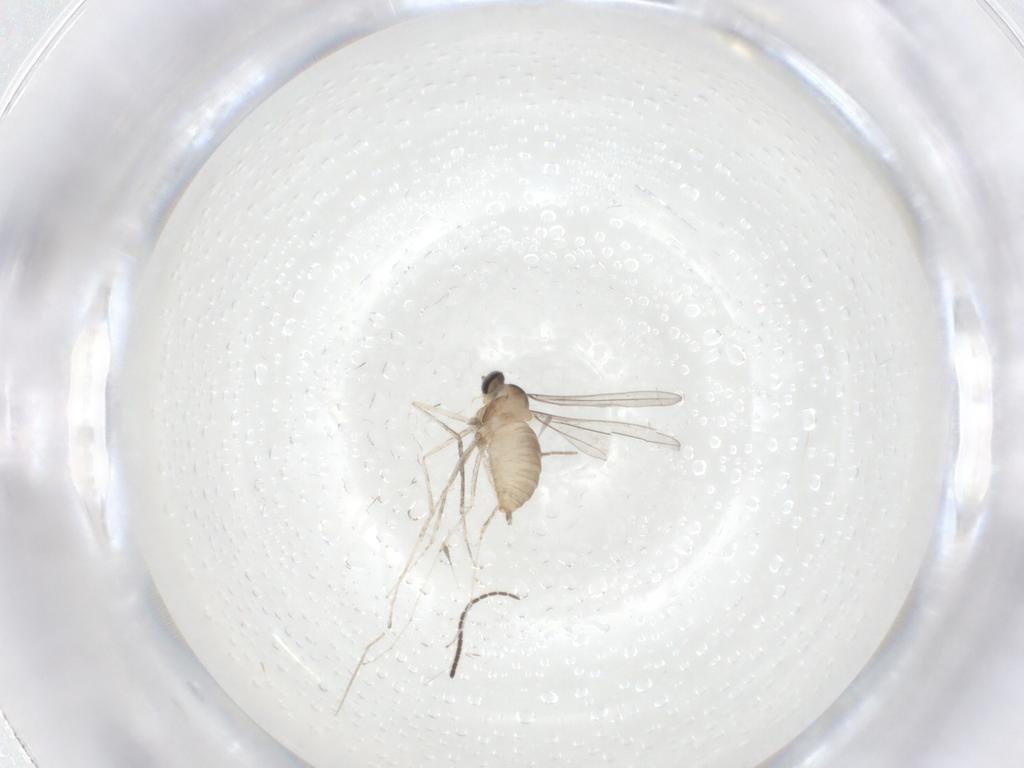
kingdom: Animalia
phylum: Arthropoda
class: Insecta
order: Diptera
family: Cecidomyiidae
